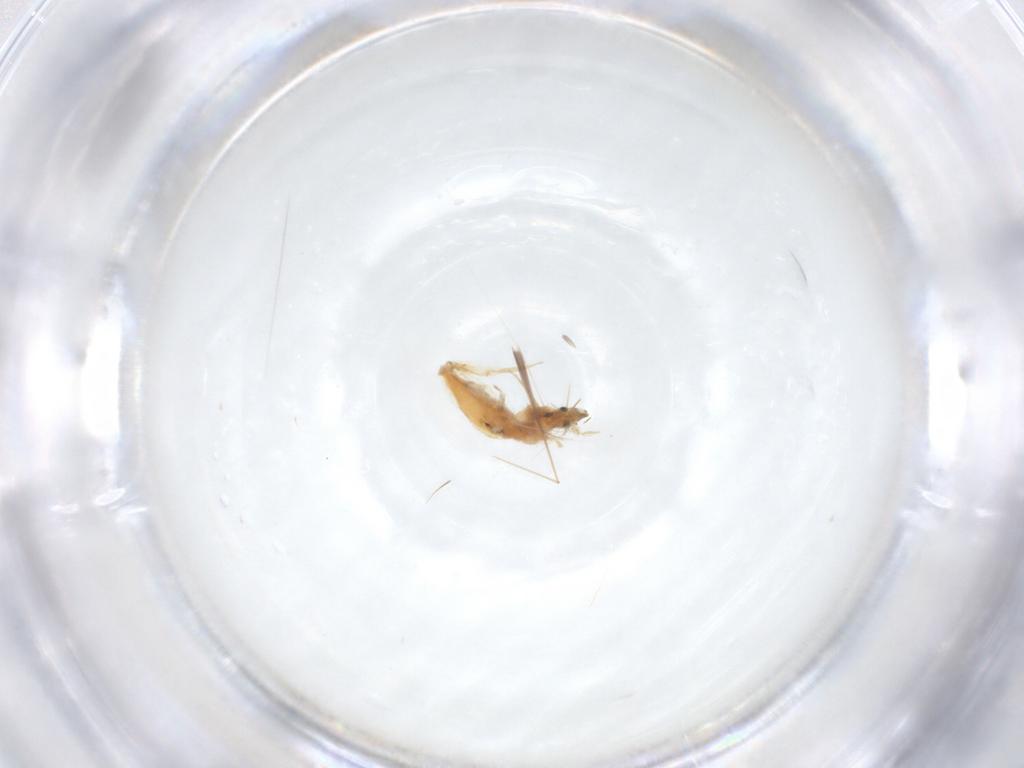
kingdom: Animalia
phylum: Arthropoda
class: Collembola
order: Entomobryomorpha
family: Entomobryidae
